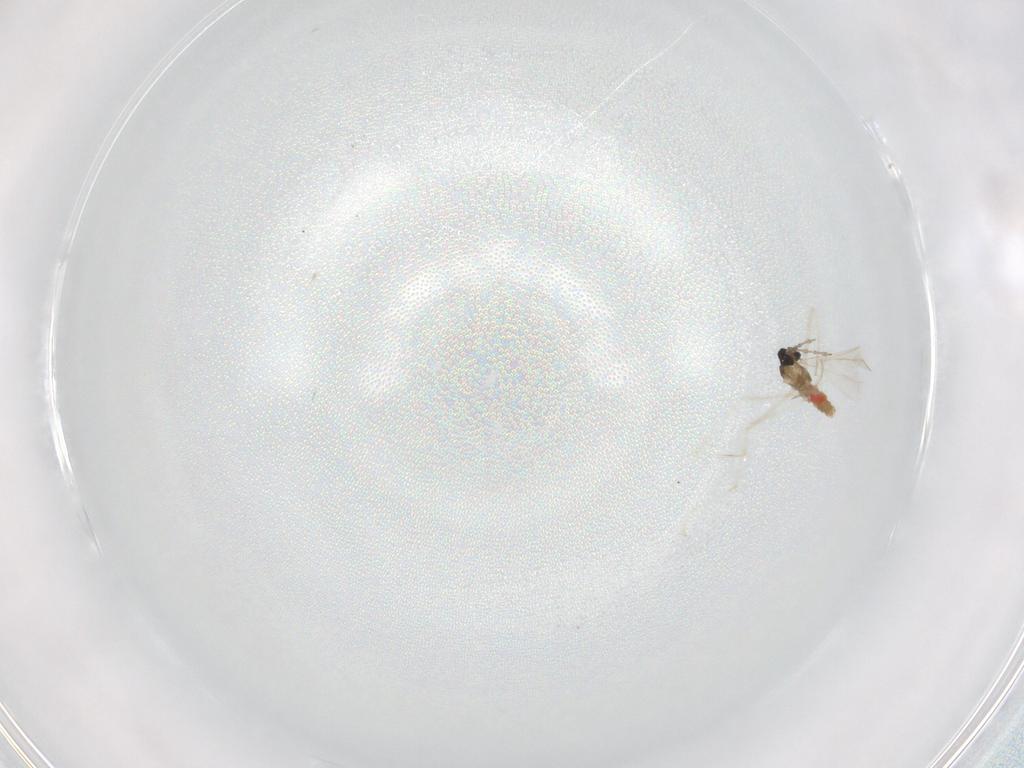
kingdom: Animalia
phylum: Arthropoda
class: Insecta
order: Diptera
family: Cecidomyiidae
